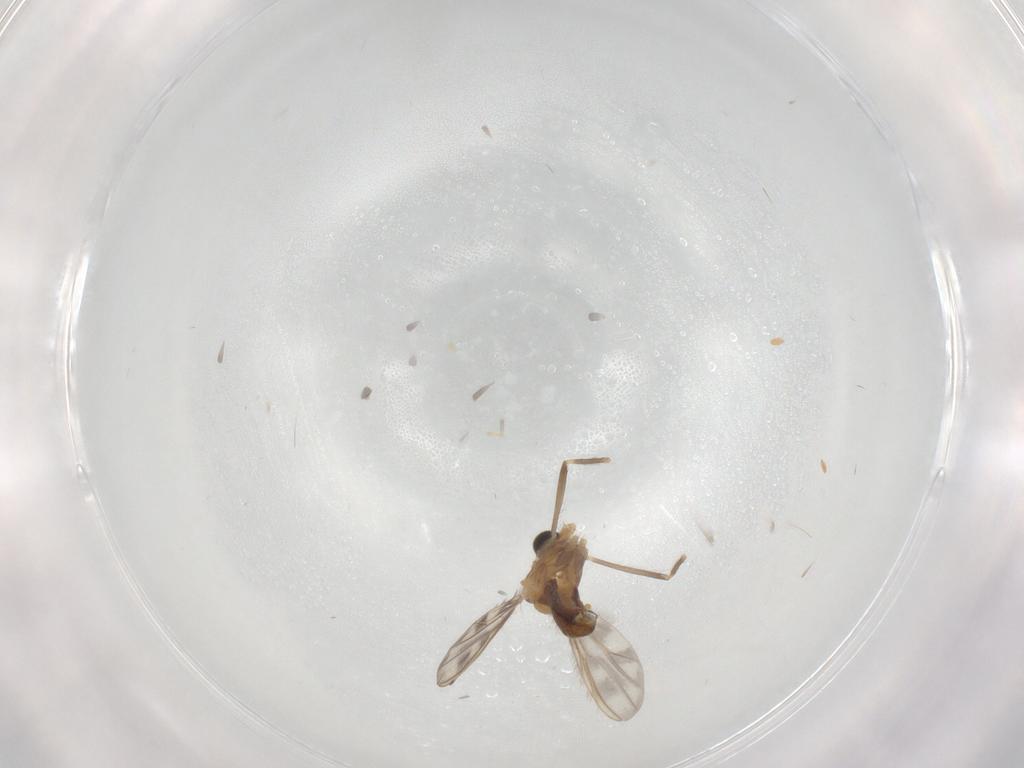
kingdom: Animalia
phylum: Arthropoda
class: Insecta
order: Diptera
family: Chironomidae
